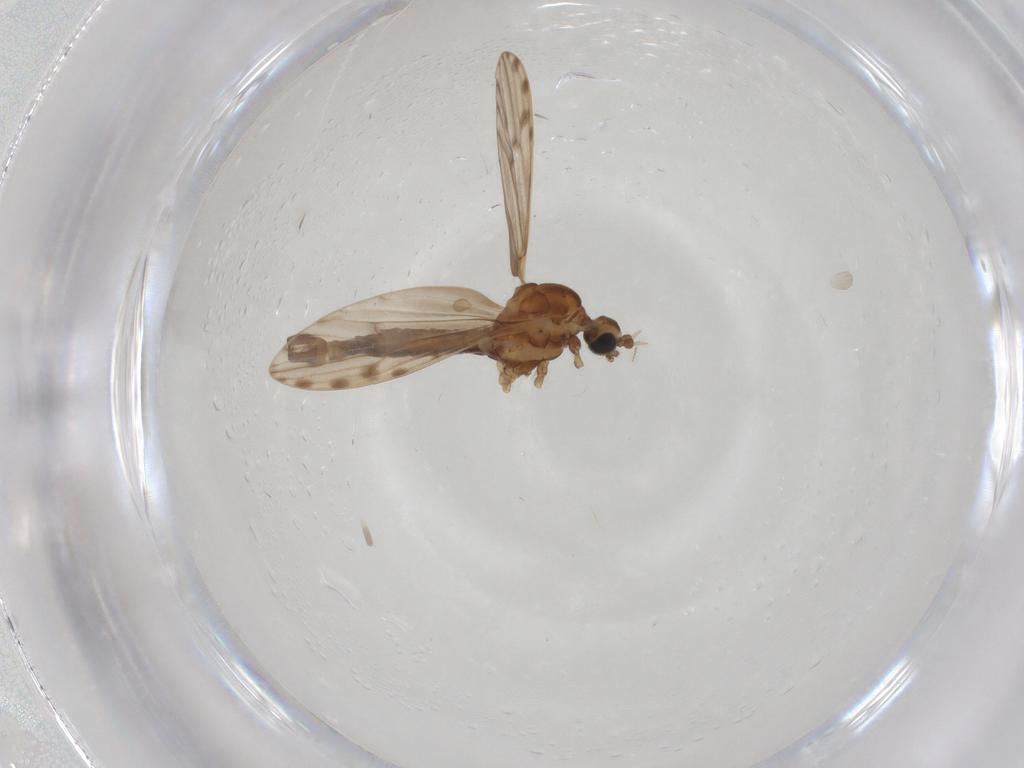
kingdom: Animalia
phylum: Arthropoda
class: Insecta
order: Diptera
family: Limoniidae
